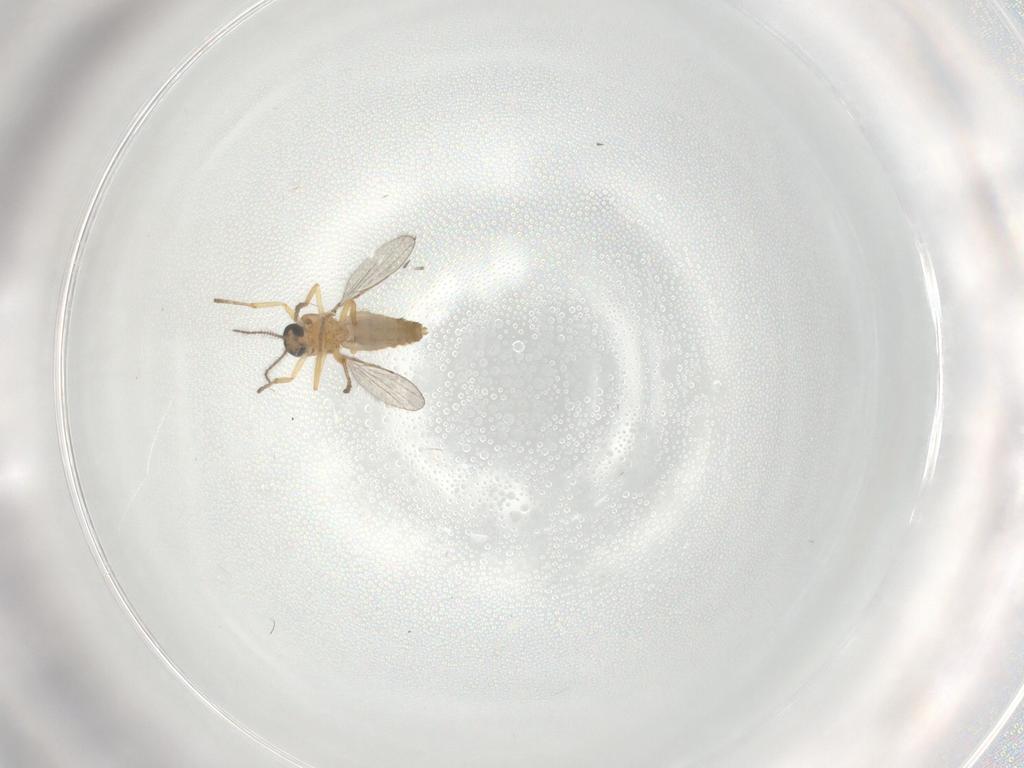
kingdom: Animalia
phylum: Arthropoda
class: Insecta
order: Diptera
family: Ceratopogonidae
